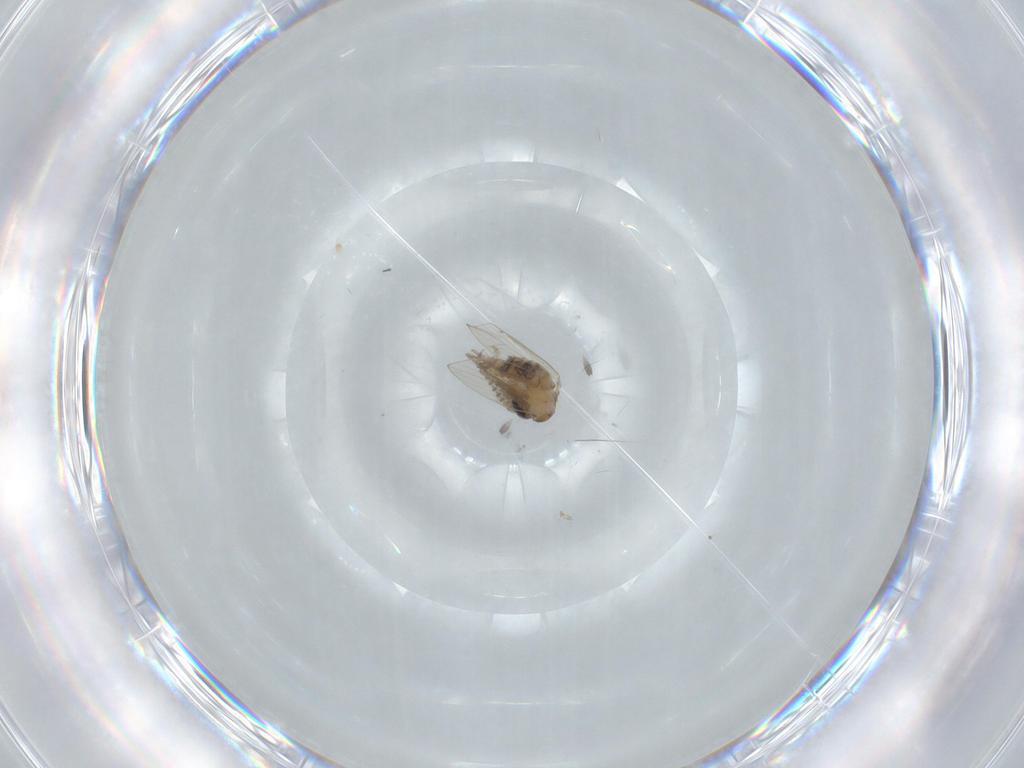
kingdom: Animalia
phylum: Arthropoda
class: Insecta
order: Diptera
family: Psychodidae
